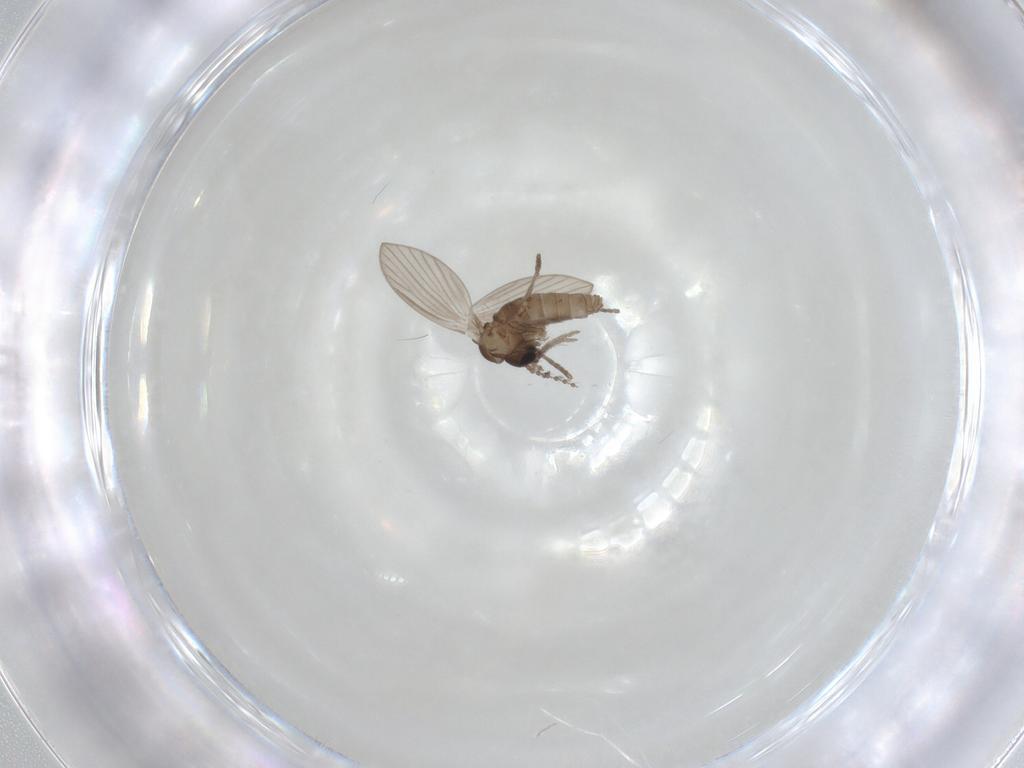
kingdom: Animalia
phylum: Arthropoda
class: Insecta
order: Diptera
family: Psychodidae
